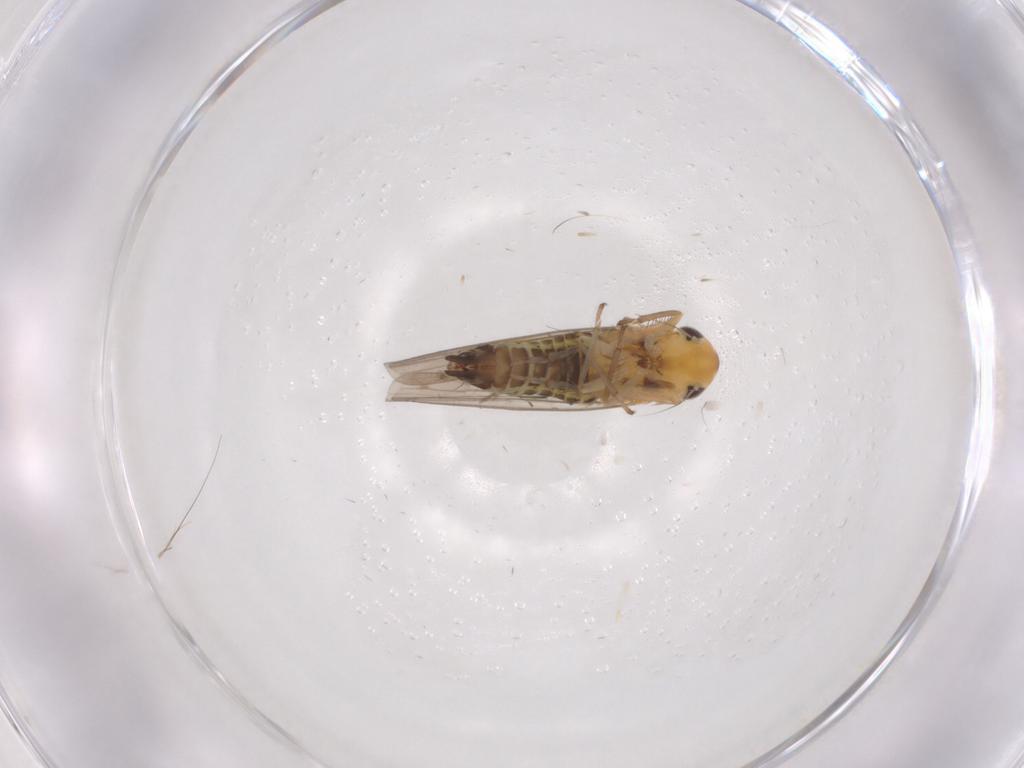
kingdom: Animalia
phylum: Arthropoda
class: Insecta
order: Hemiptera
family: Cicadellidae
